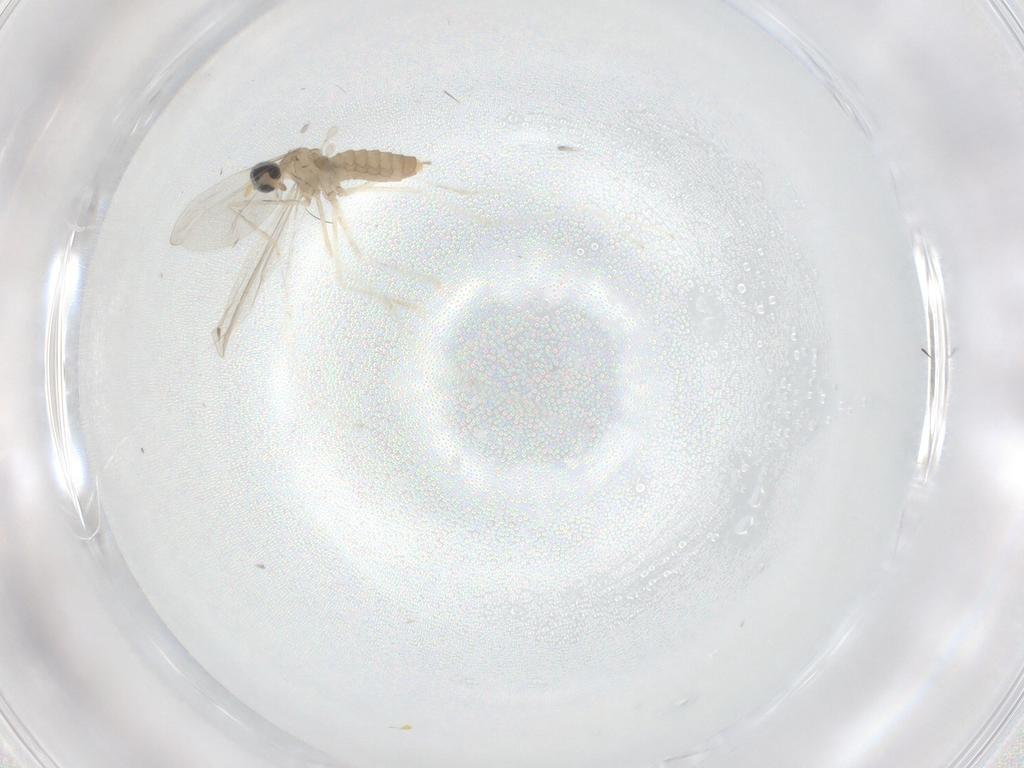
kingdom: Animalia
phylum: Arthropoda
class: Insecta
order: Diptera
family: Cecidomyiidae
